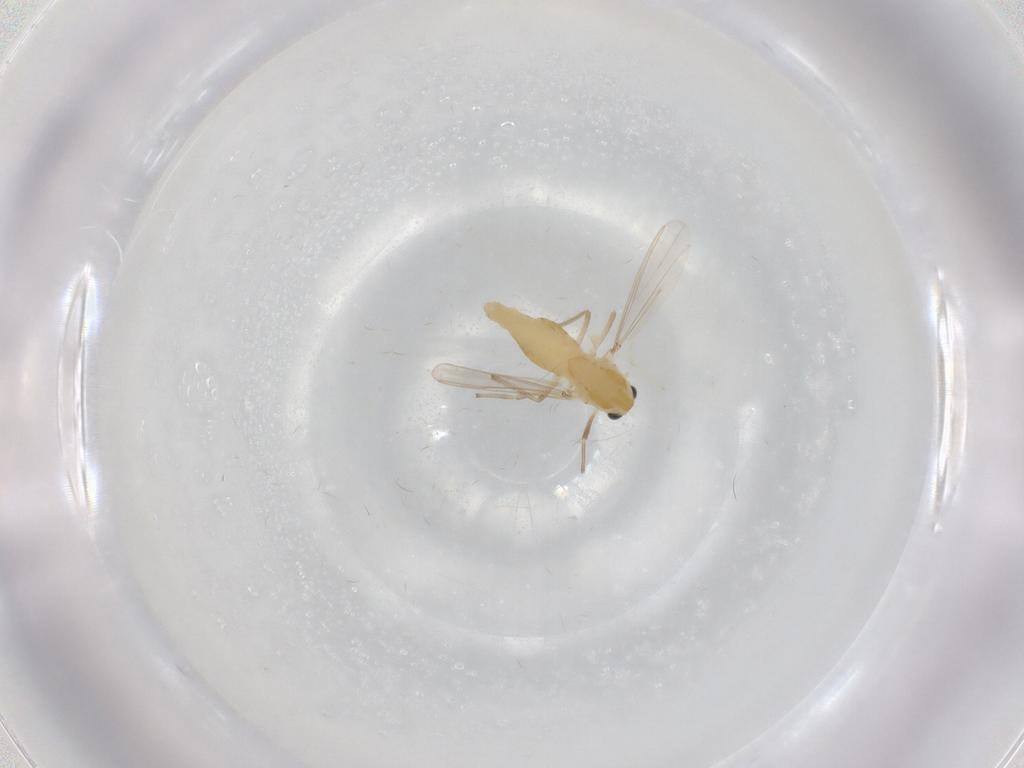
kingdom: Animalia
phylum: Arthropoda
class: Insecta
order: Diptera
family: Chironomidae
